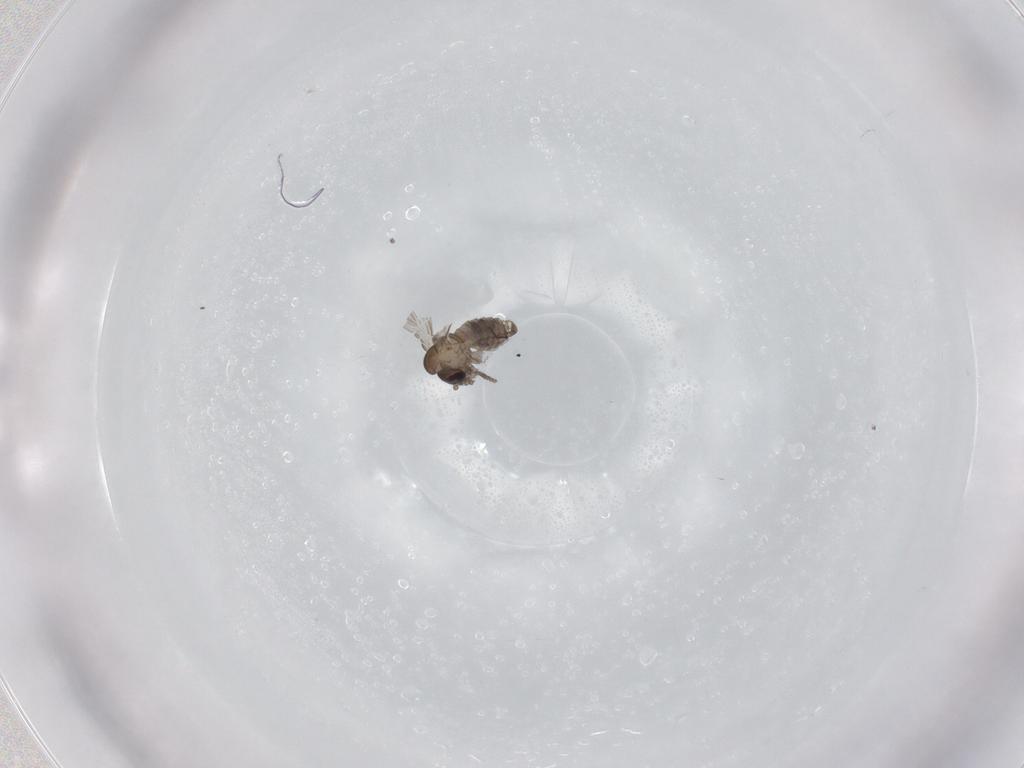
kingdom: Animalia
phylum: Arthropoda
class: Insecta
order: Diptera
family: Psychodidae
